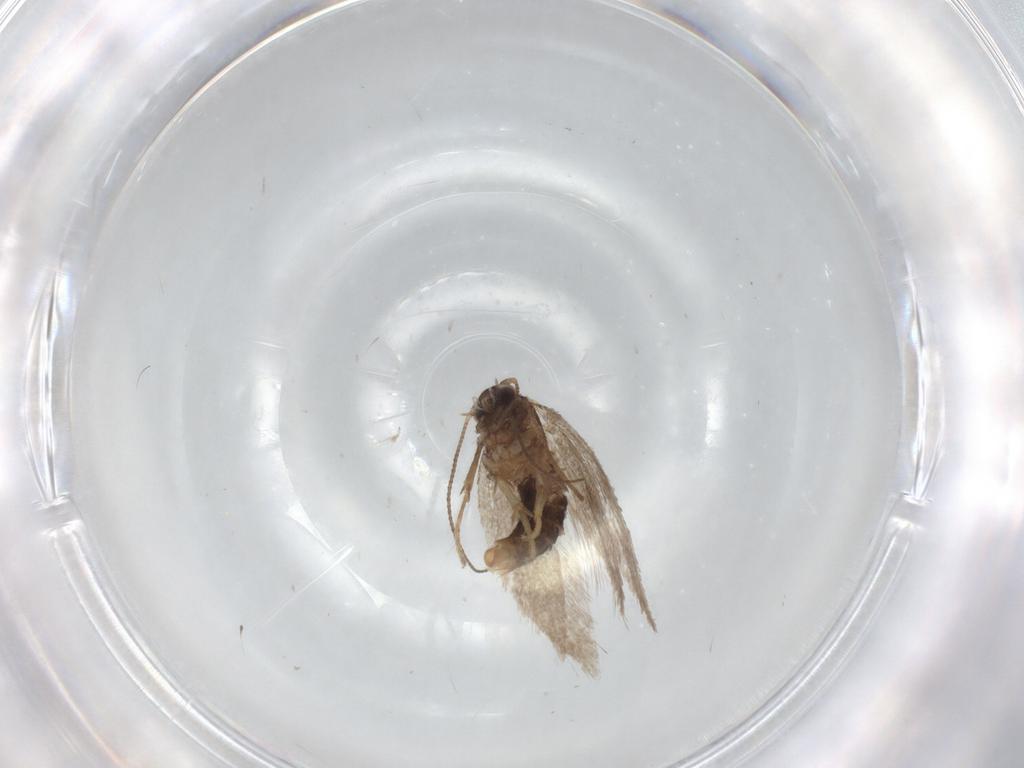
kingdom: Animalia
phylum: Arthropoda
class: Insecta
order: Lepidoptera
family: Nepticulidae
